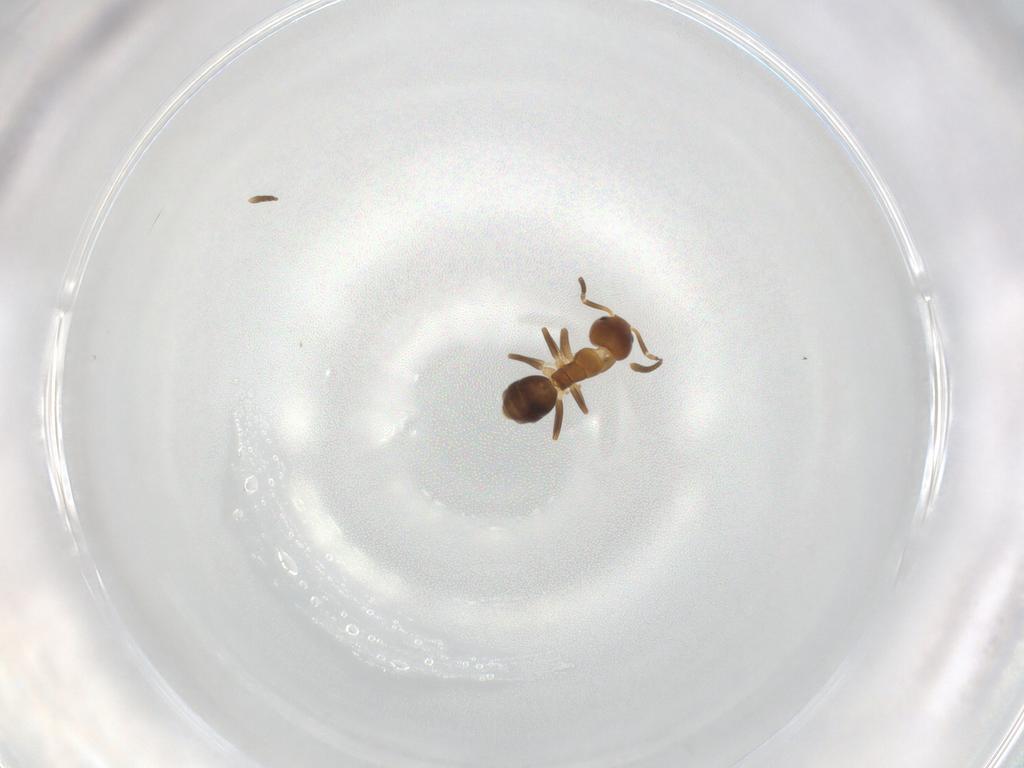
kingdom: Animalia
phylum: Arthropoda
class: Insecta
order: Hymenoptera
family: Formicidae
